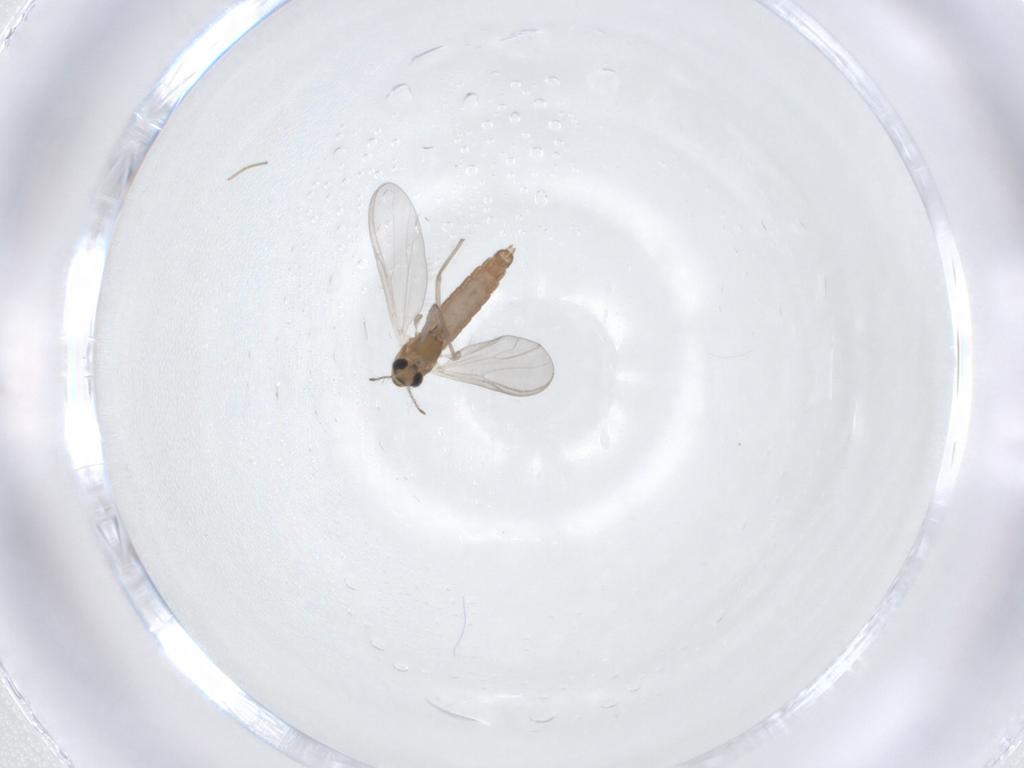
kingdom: Animalia
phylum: Arthropoda
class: Insecta
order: Diptera
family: Chironomidae
